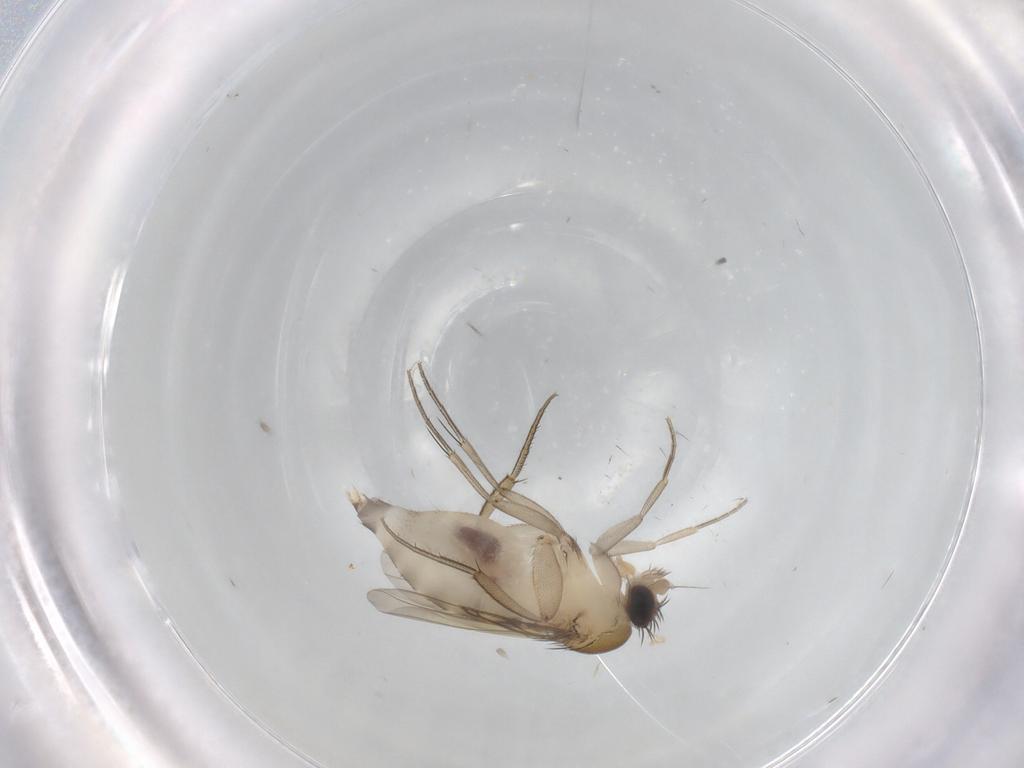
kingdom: Animalia
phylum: Arthropoda
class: Insecta
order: Diptera
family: Phoridae
